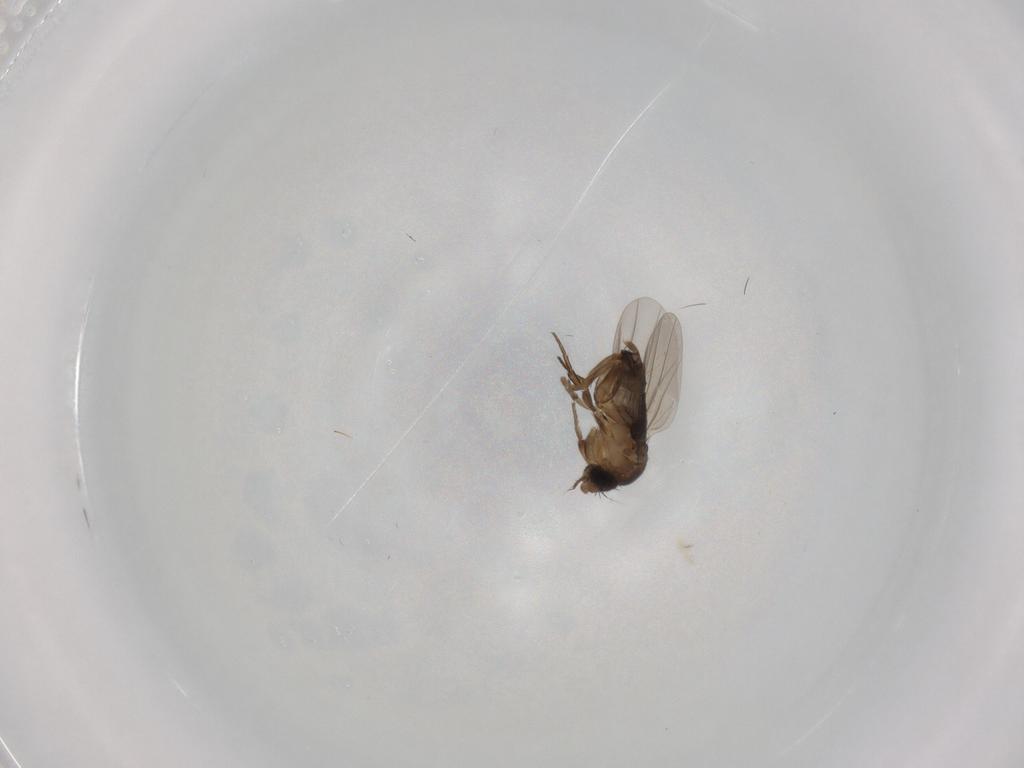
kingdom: Animalia
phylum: Arthropoda
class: Insecta
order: Diptera
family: Phoridae
